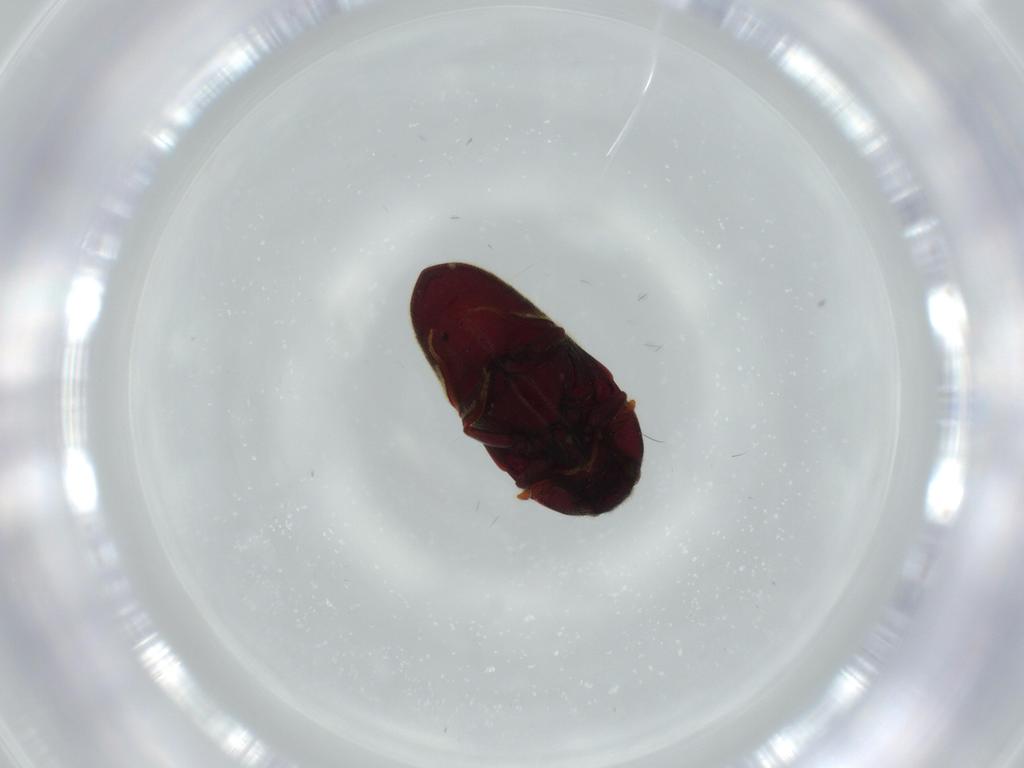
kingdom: Animalia
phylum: Arthropoda
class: Insecta
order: Coleoptera
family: Throscidae
